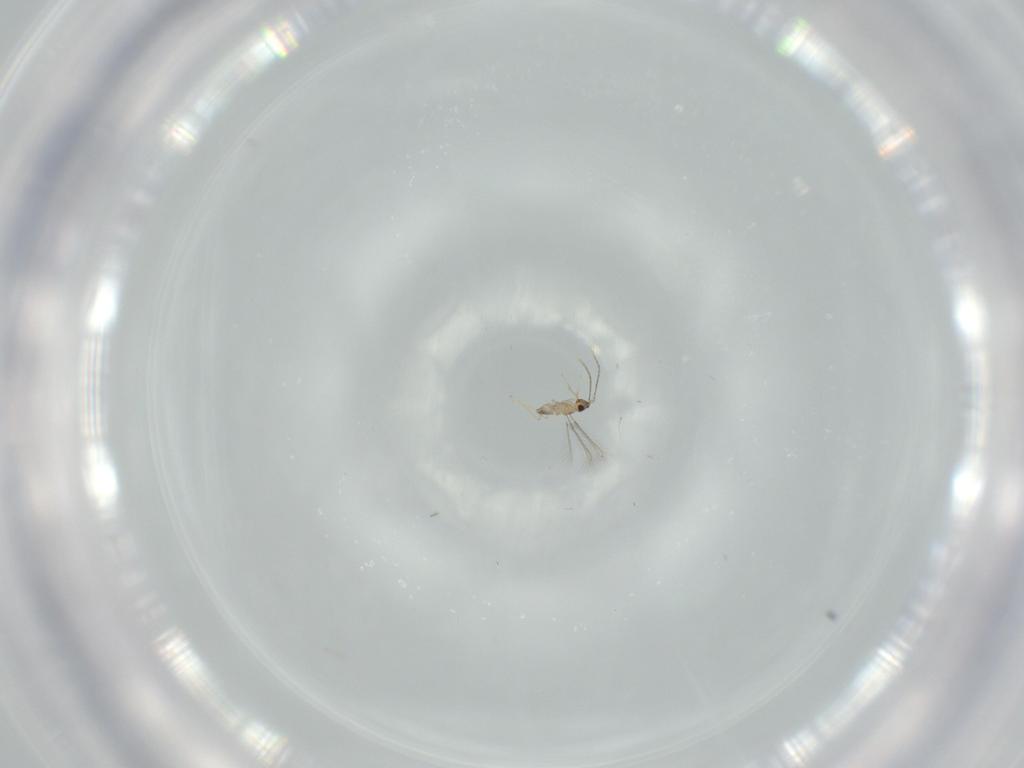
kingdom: Animalia
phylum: Arthropoda
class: Insecta
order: Hymenoptera
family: Mymaridae
